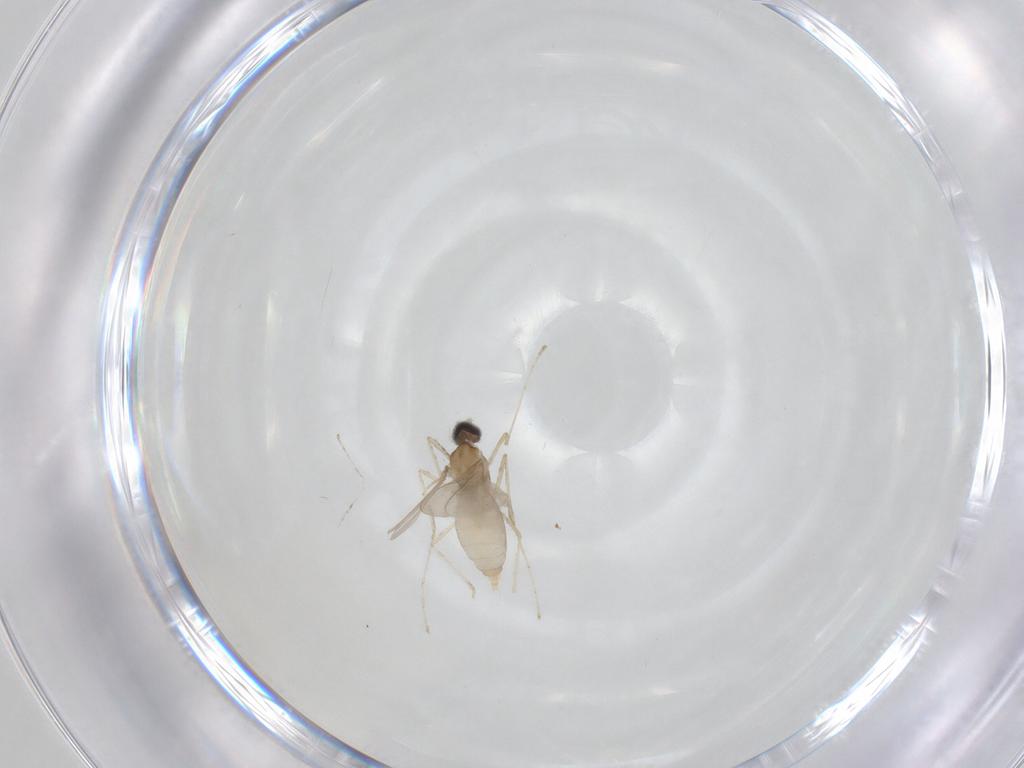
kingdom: Animalia
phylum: Arthropoda
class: Insecta
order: Diptera
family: Cecidomyiidae
